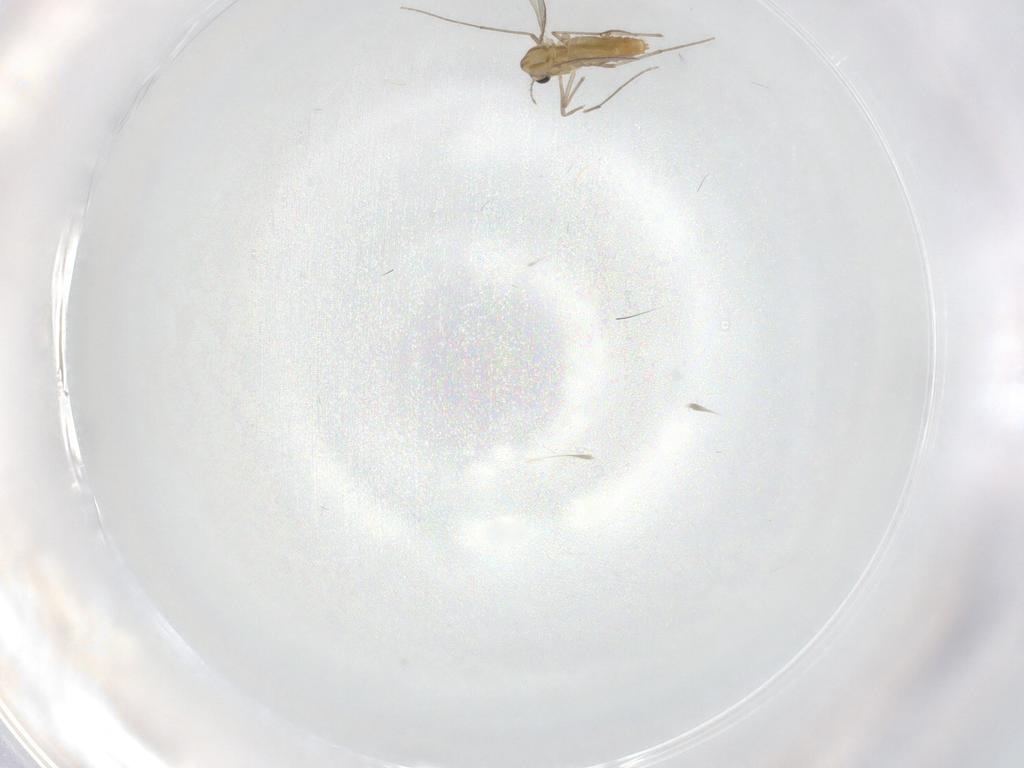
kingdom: Animalia
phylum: Arthropoda
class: Insecta
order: Diptera
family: Chironomidae
